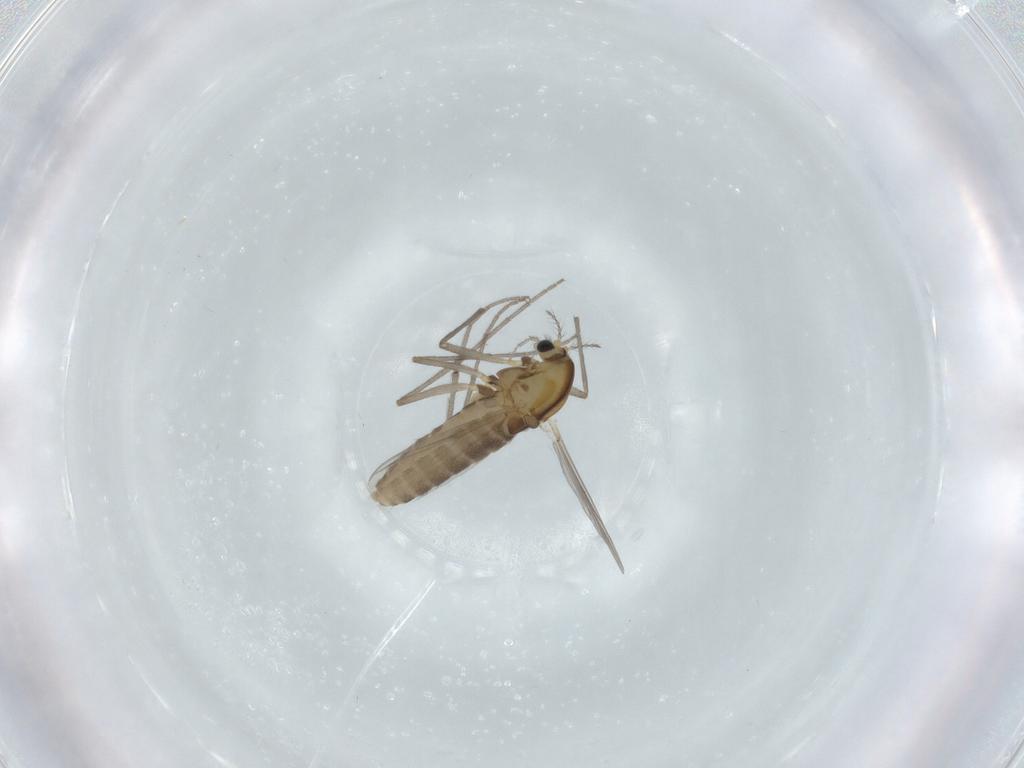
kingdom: Animalia
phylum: Arthropoda
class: Insecta
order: Diptera
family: Chironomidae
